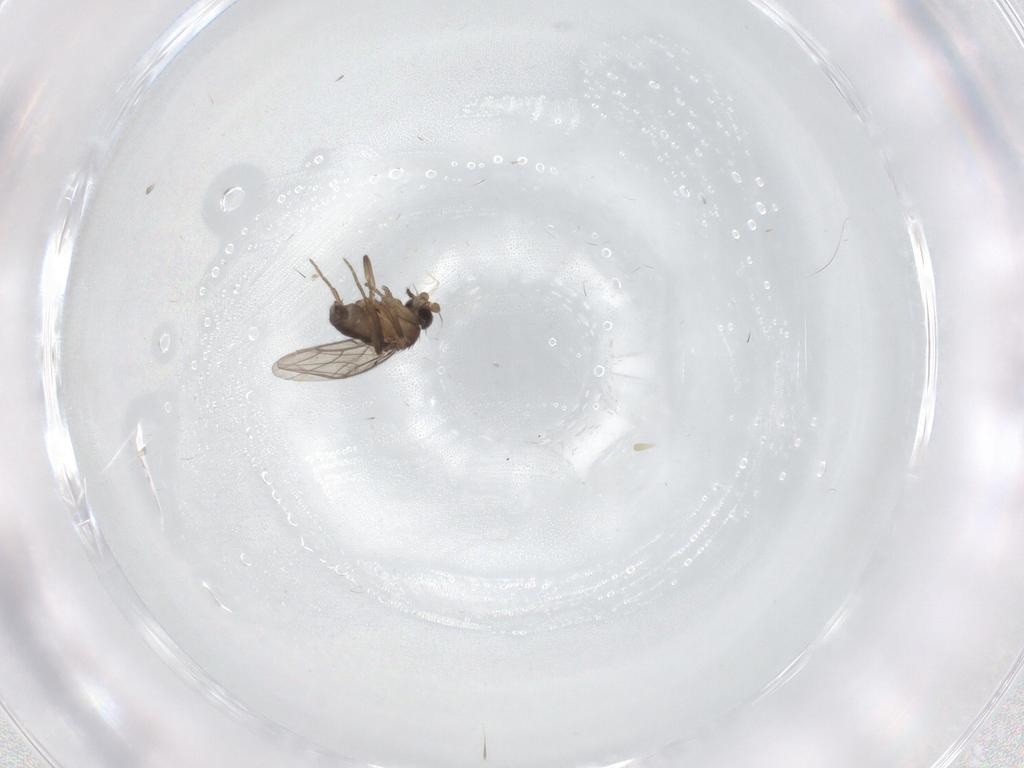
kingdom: Animalia
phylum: Arthropoda
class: Insecta
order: Diptera
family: Phoridae
